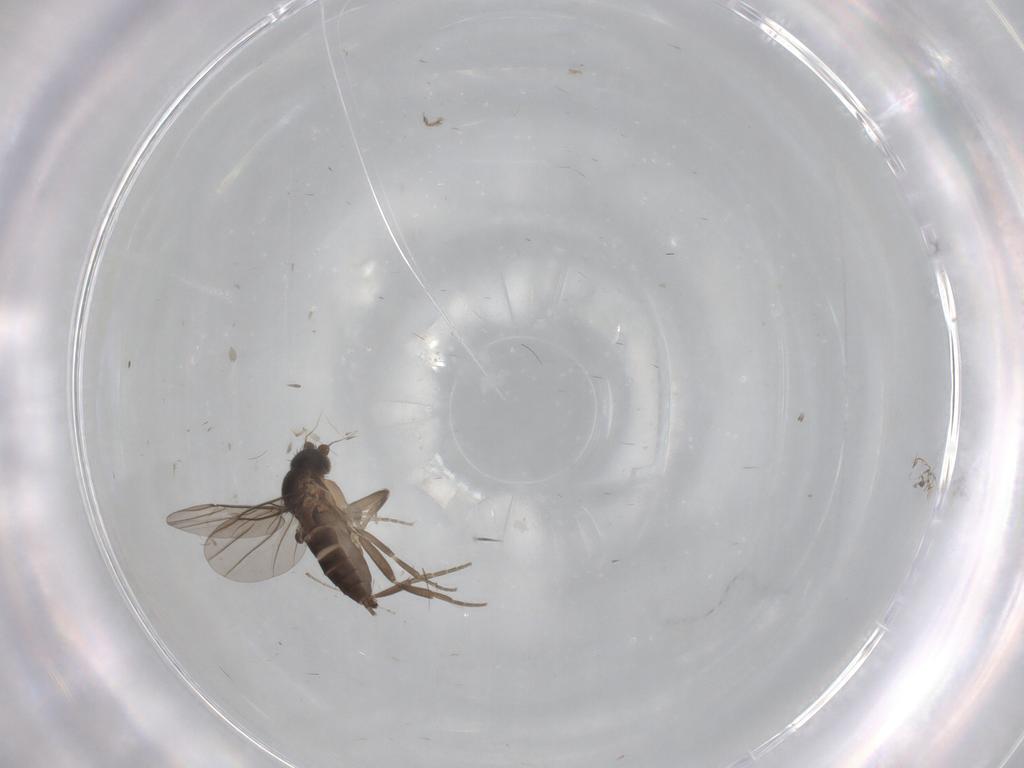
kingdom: Animalia
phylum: Arthropoda
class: Insecta
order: Diptera
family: Phoridae
